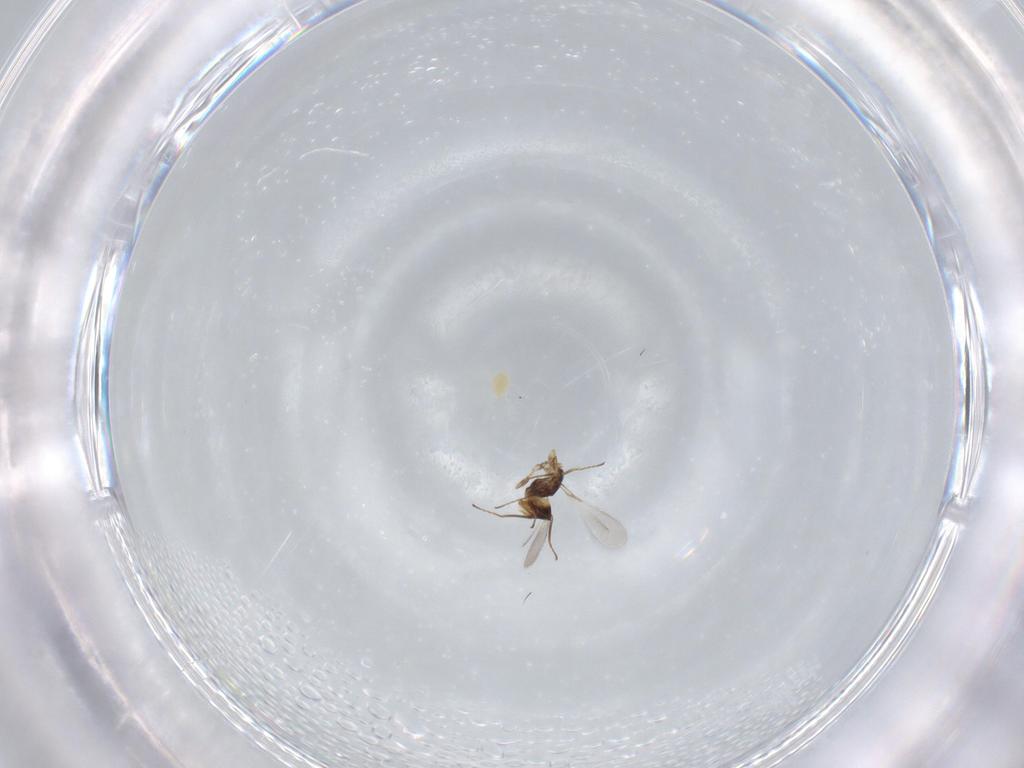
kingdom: Animalia
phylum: Arthropoda
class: Insecta
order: Hymenoptera
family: Mymaridae
